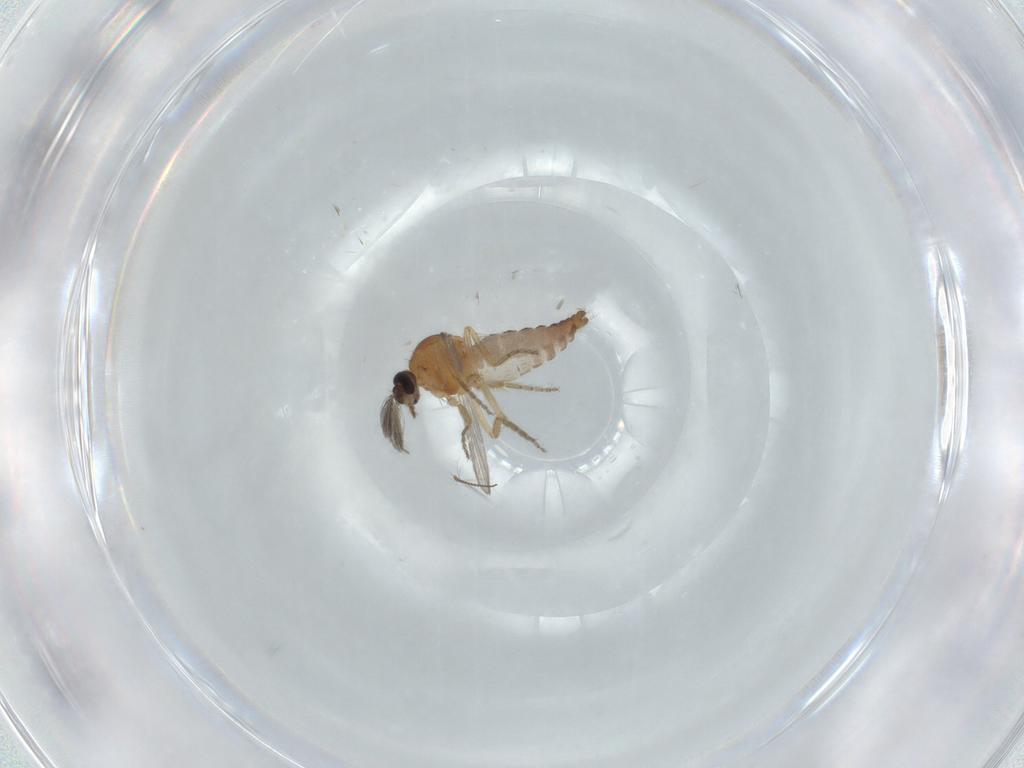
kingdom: Animalia
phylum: Arthropoda
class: Insecta
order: Diptera
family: Ceratopogonidae
